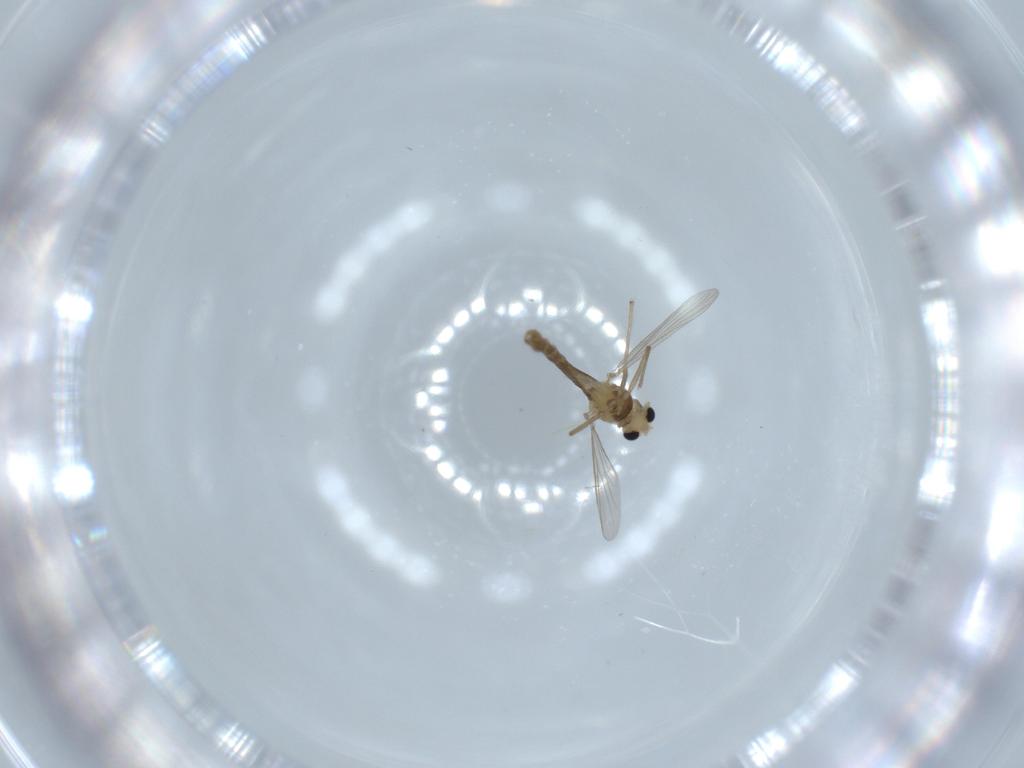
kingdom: Animalia
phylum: Arthropoda
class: Insecta
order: Diptera
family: Chironomidae
